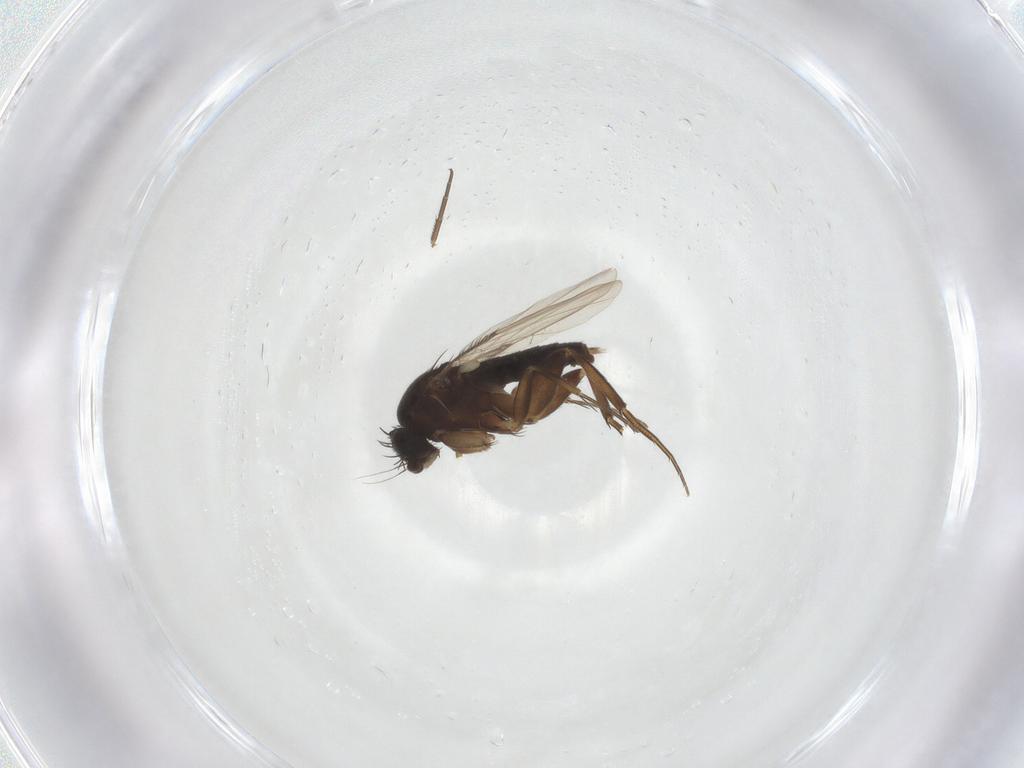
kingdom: Animalia
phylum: Arthropoda
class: Insecta
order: Diptera
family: Phoridae
